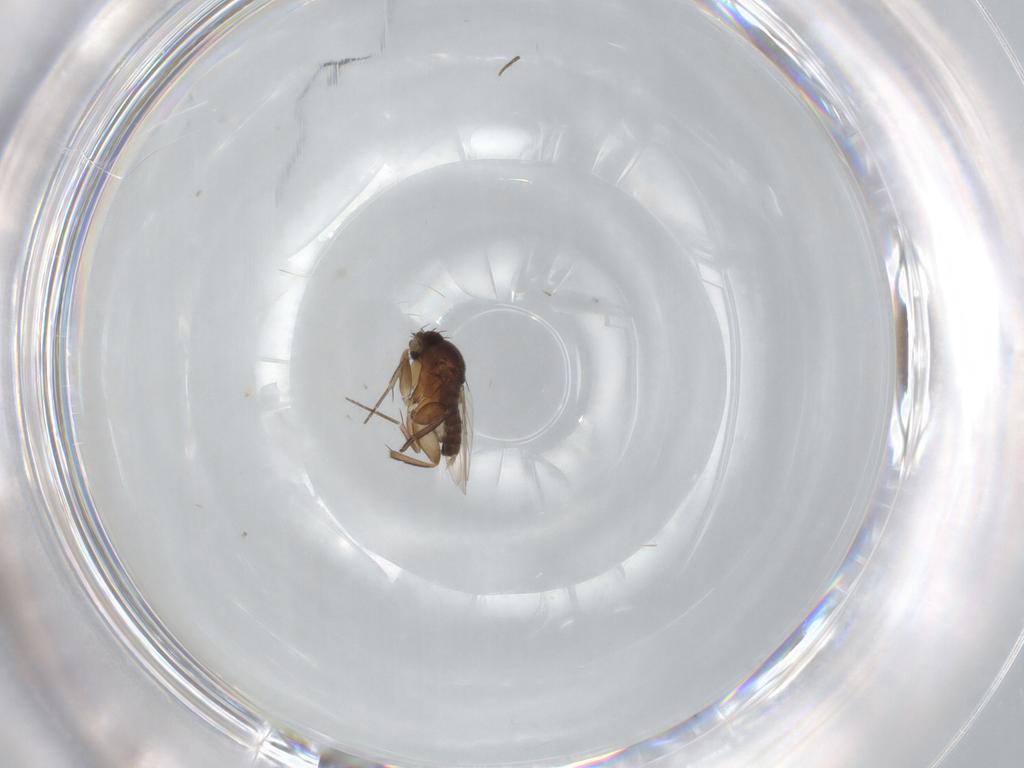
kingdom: Animalia
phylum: Arthropoda
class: Insecta
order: Diptera
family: Phoridae
